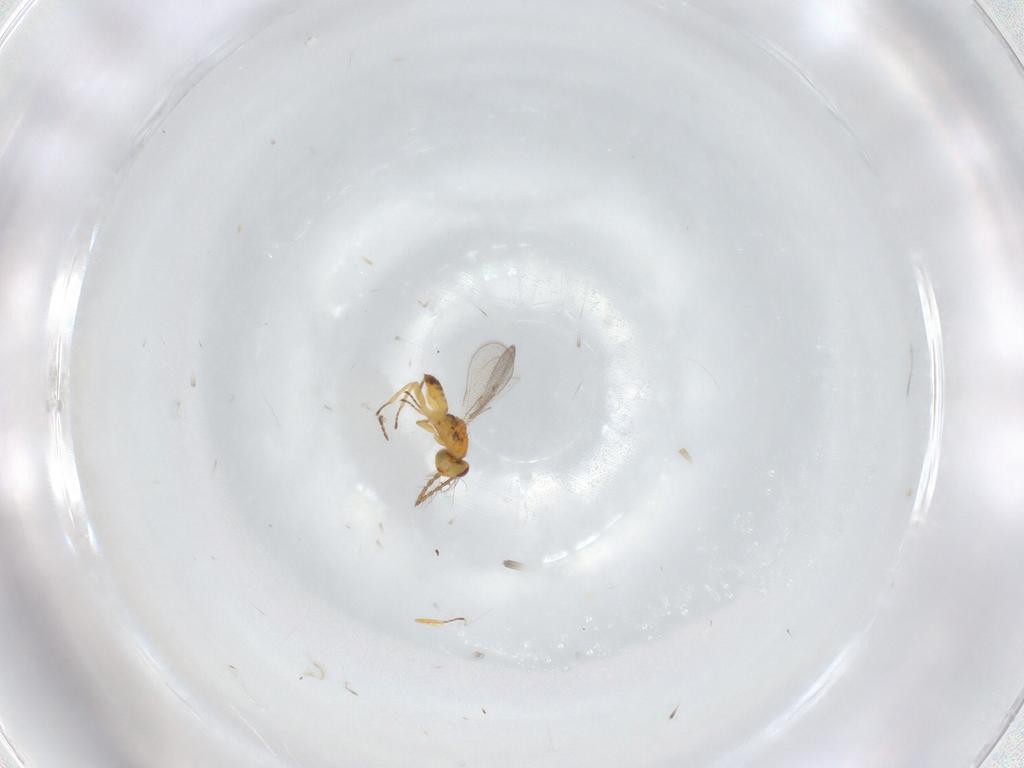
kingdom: Animalia
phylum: Arthropoda
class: Insecta
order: Hymenoptera
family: Eulophidae
